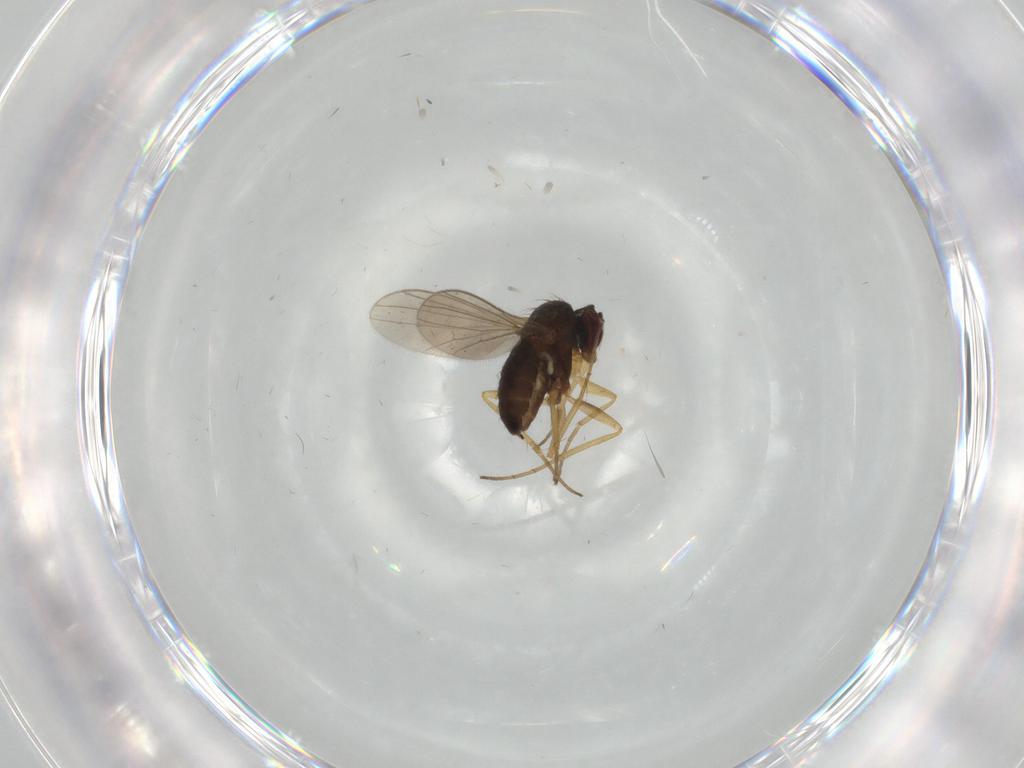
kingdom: Animalia
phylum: Arthropoda
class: Insecta
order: Diptera
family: Dolichopodidae
